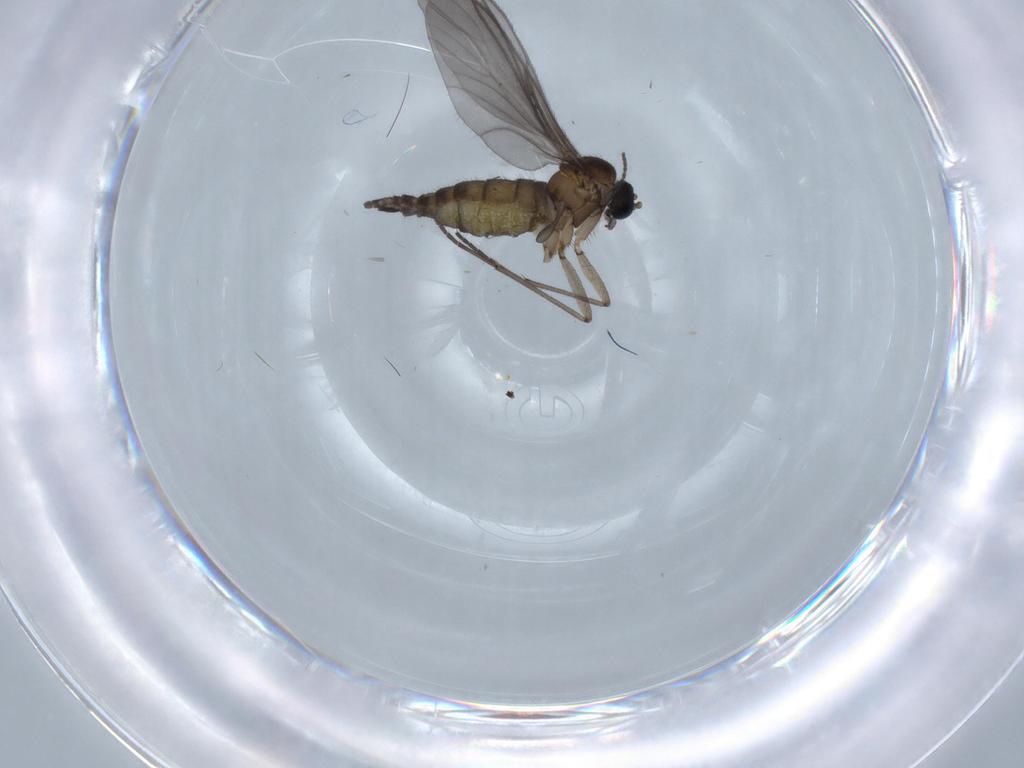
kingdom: Animalia
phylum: Arthropoda
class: Insecta
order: Diptera
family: Sciaridae
